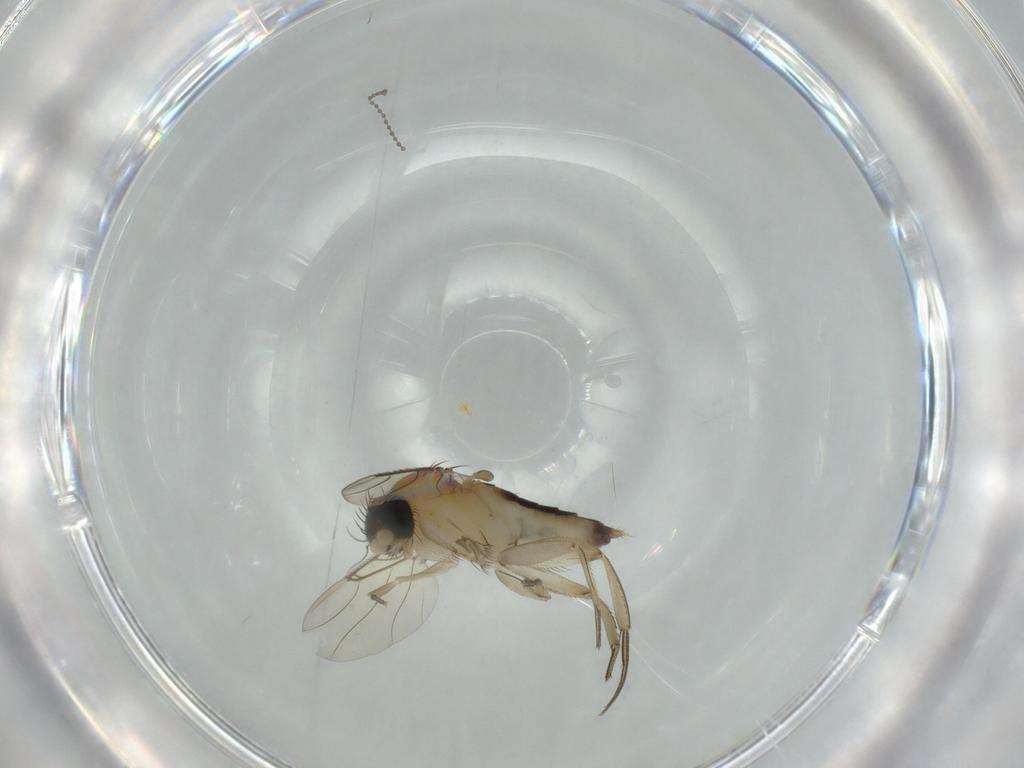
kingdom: Animalia
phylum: Arthropoda
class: Insecta
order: Diptera
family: Phoridae
